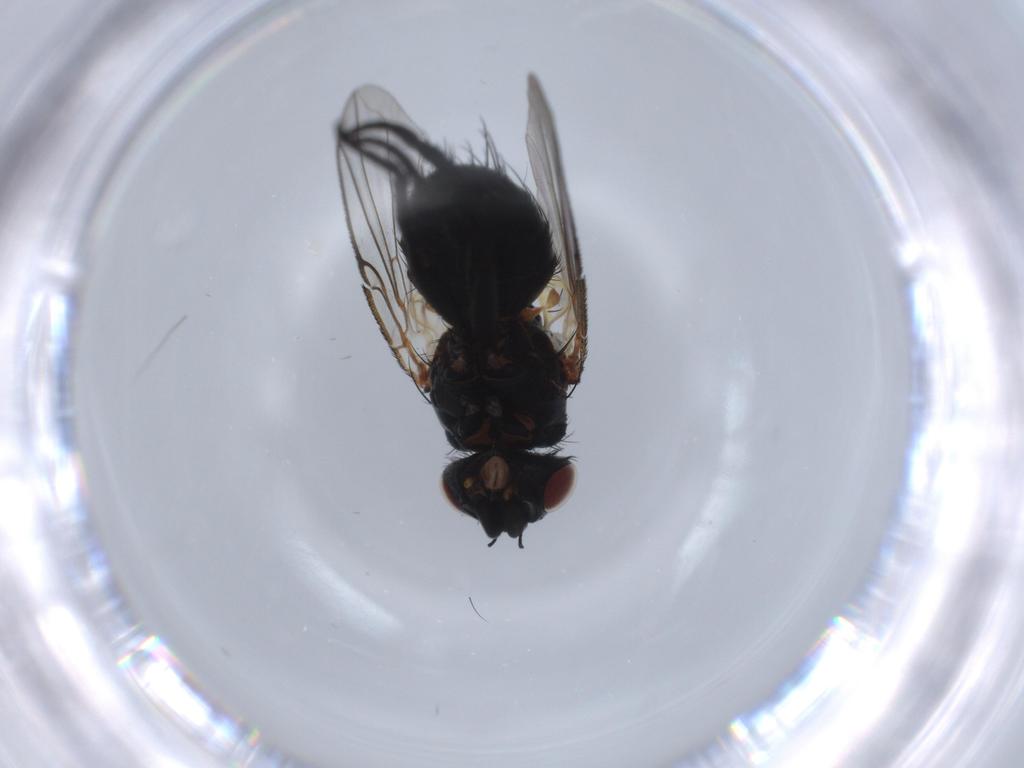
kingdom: Animalia
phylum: Arthropoda
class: Insecta
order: Diptera
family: Tachinidae
